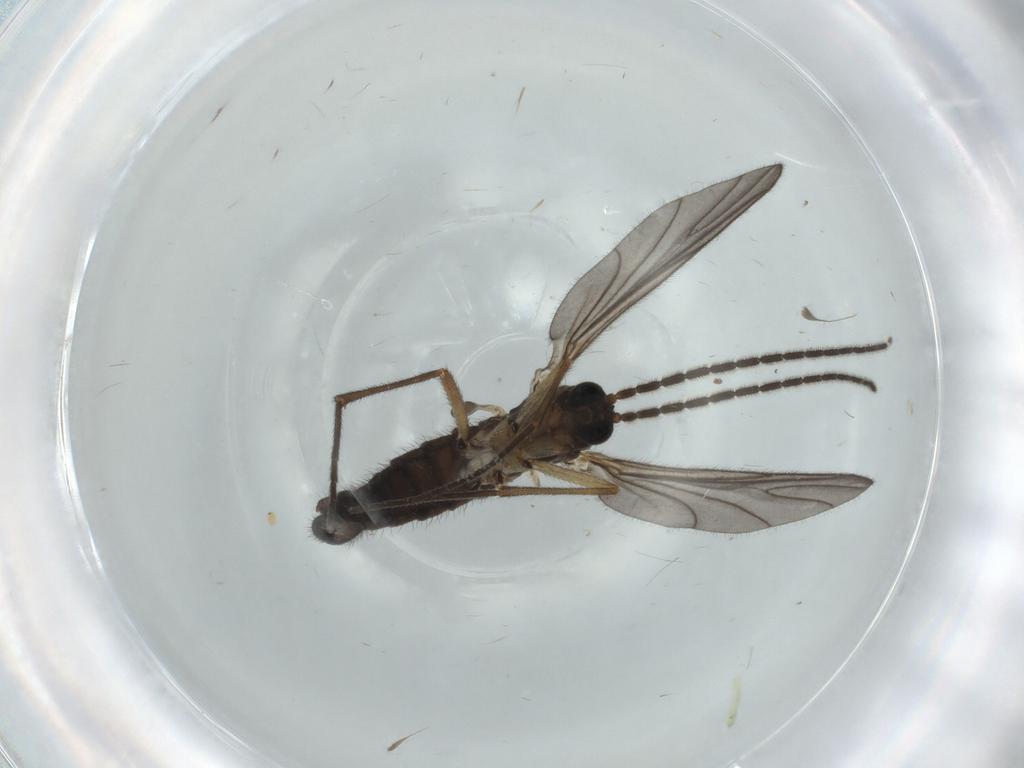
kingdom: Animalia
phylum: Arthropoda
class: Insecta
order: Diptera
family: Sciaridae
